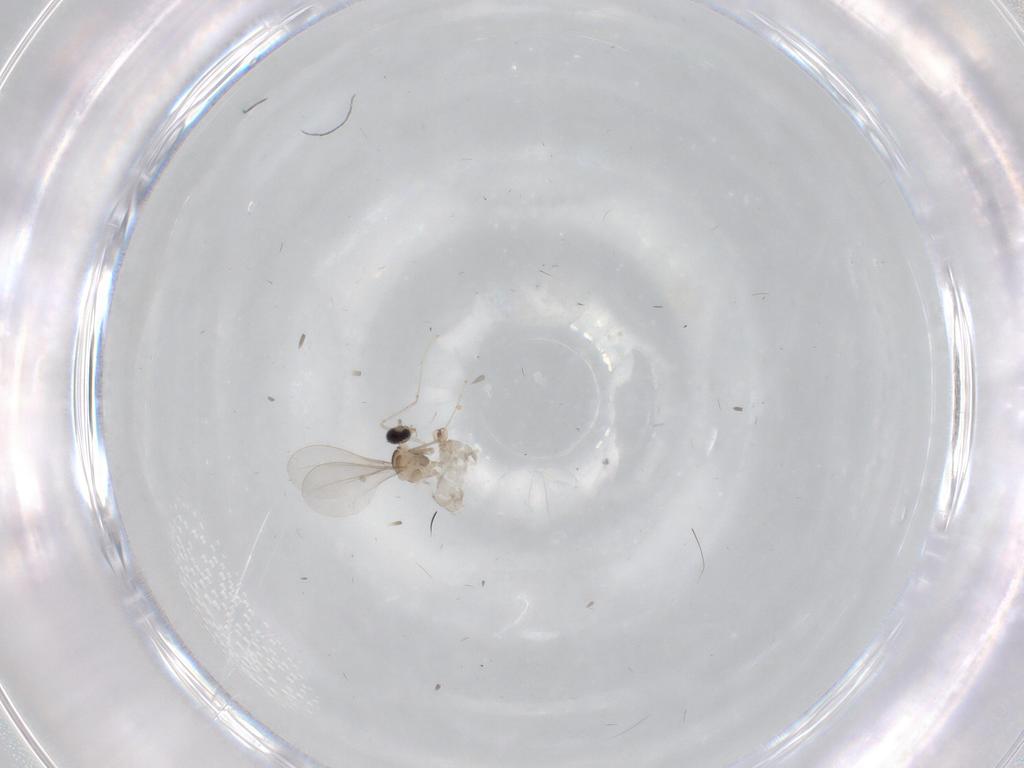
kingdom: Animalia
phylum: Arthropoda
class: Insecta
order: Diptera
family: Cecidomyiidae
